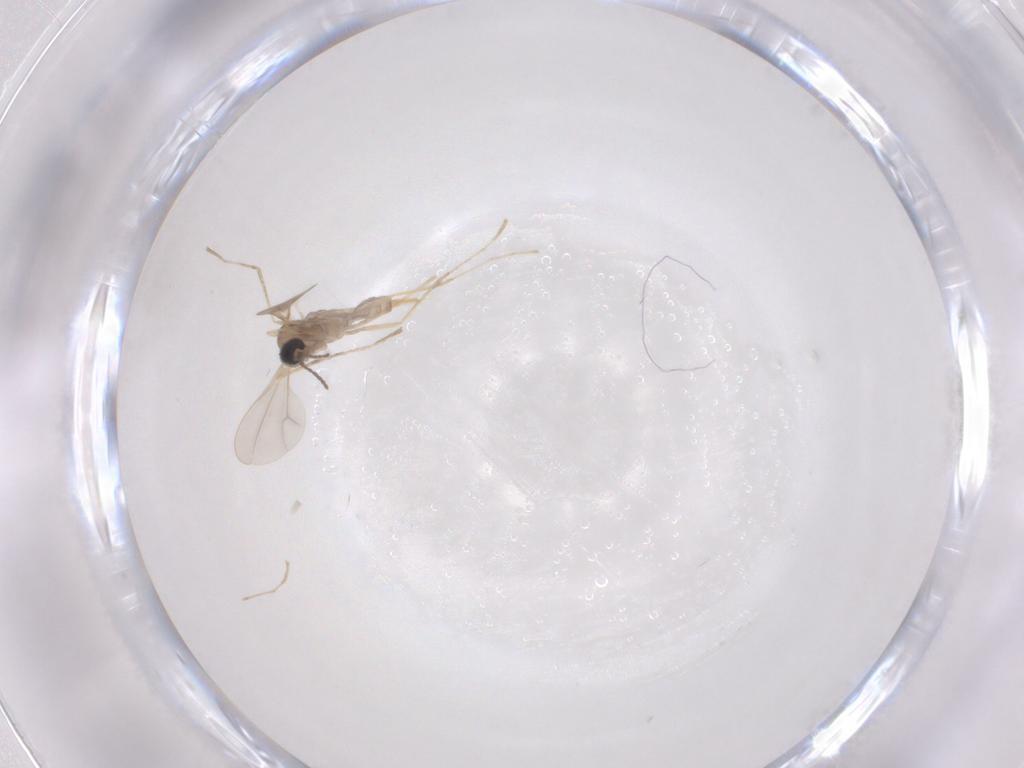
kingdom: Animalia
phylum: Arthropoda
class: Insecta
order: Diptera
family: Cecidomyiidae
